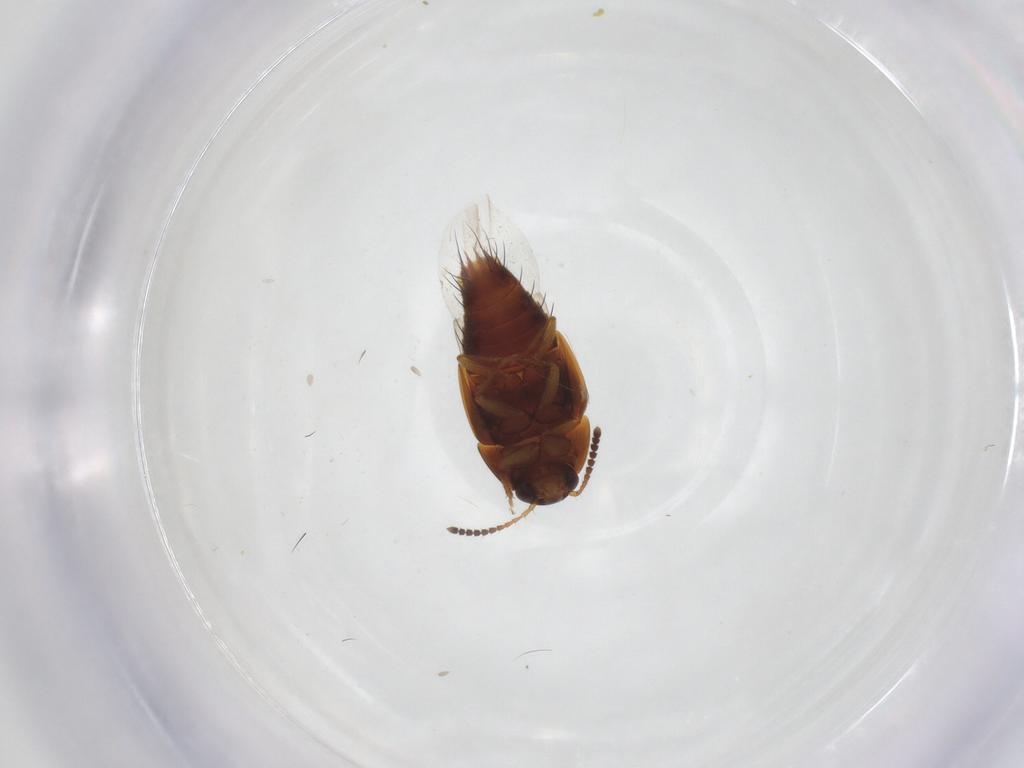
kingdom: Animalia
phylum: Arthropoda
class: Insecta
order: Coleoptera
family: Staphylinidae
